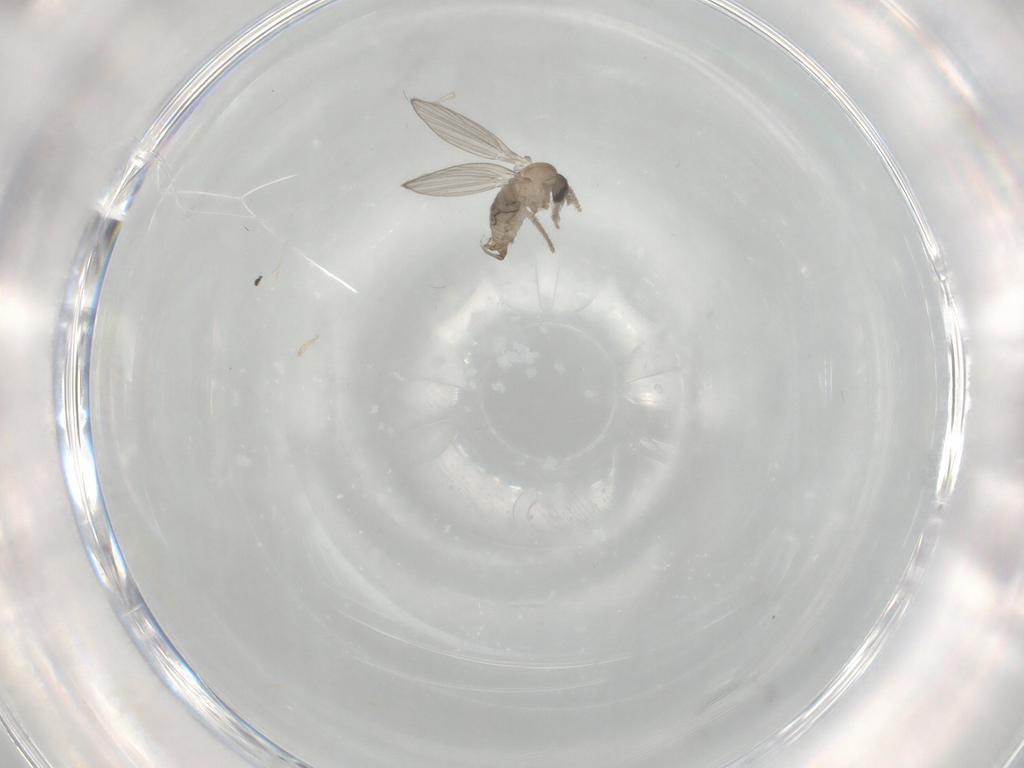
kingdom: Animalia
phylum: Arthropoda
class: Insecta
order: Diptera
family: Psychodidae
